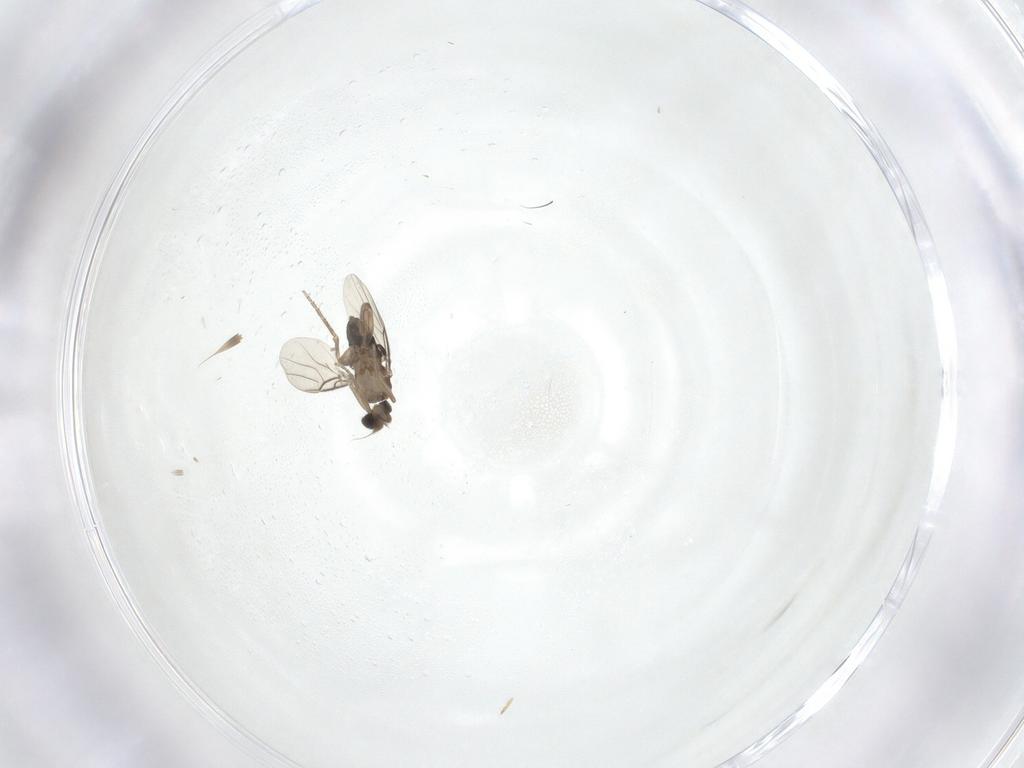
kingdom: Animalia
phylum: Arthropoda
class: Insecta
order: Diptera
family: Phoridae
